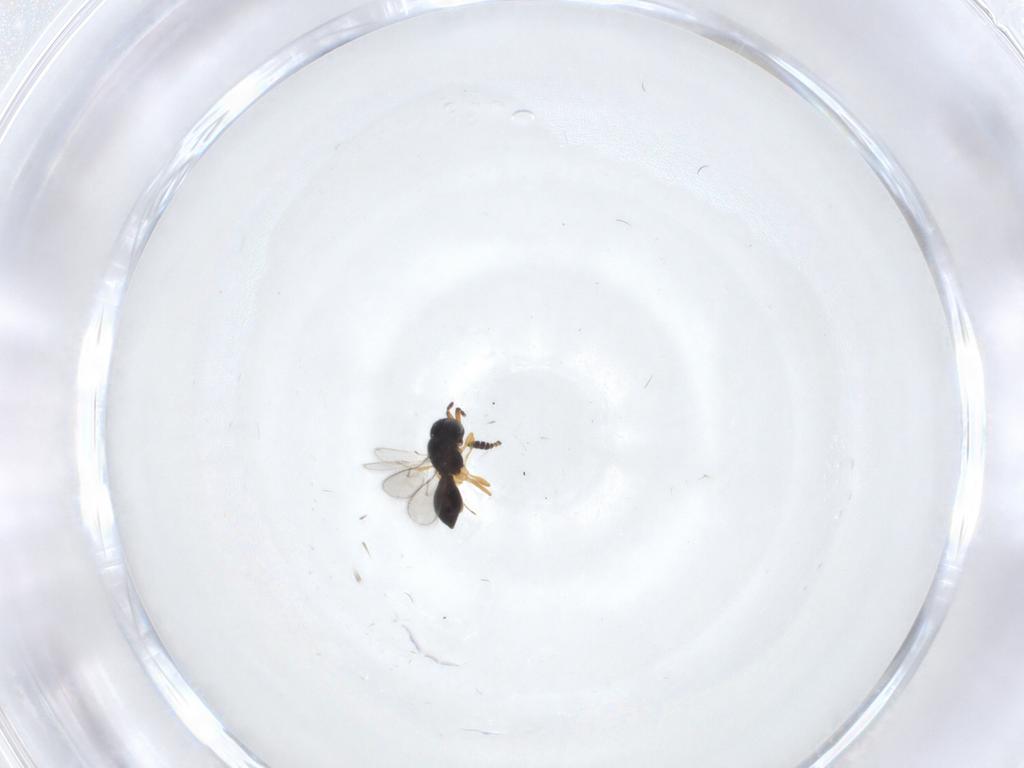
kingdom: Animalia
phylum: Arthropoda
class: Insecta
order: Hymenoptera
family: Scelionidae
